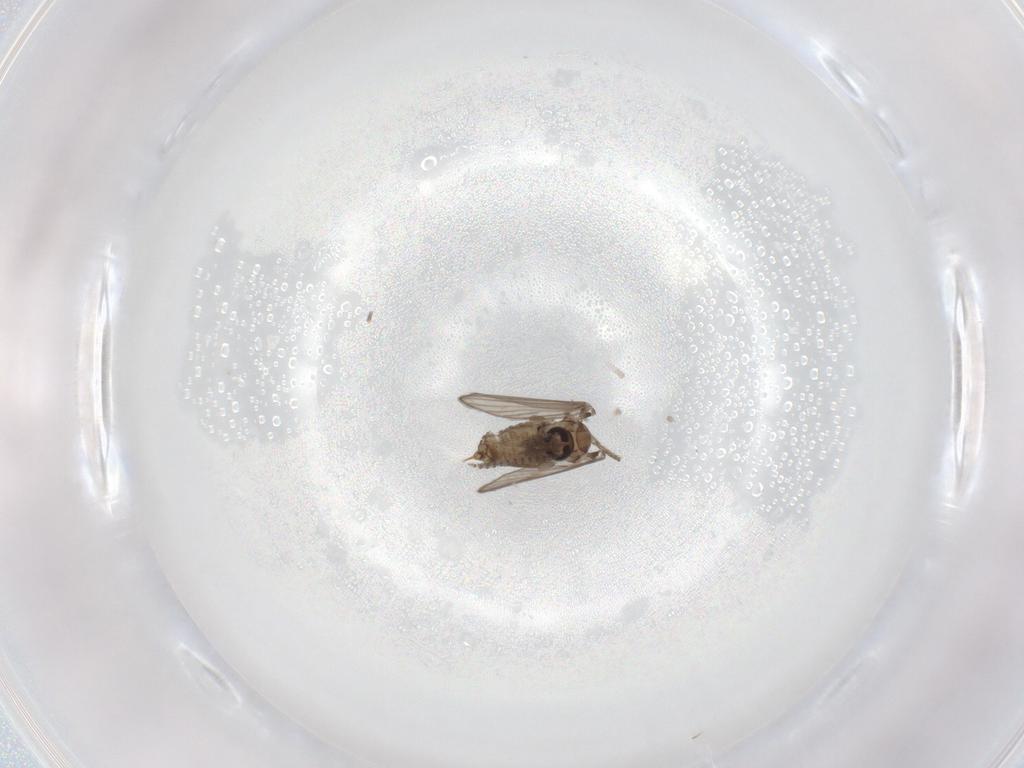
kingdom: Animalia
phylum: Arthropoda
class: Insecta
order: Diptera
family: Psychodidae
